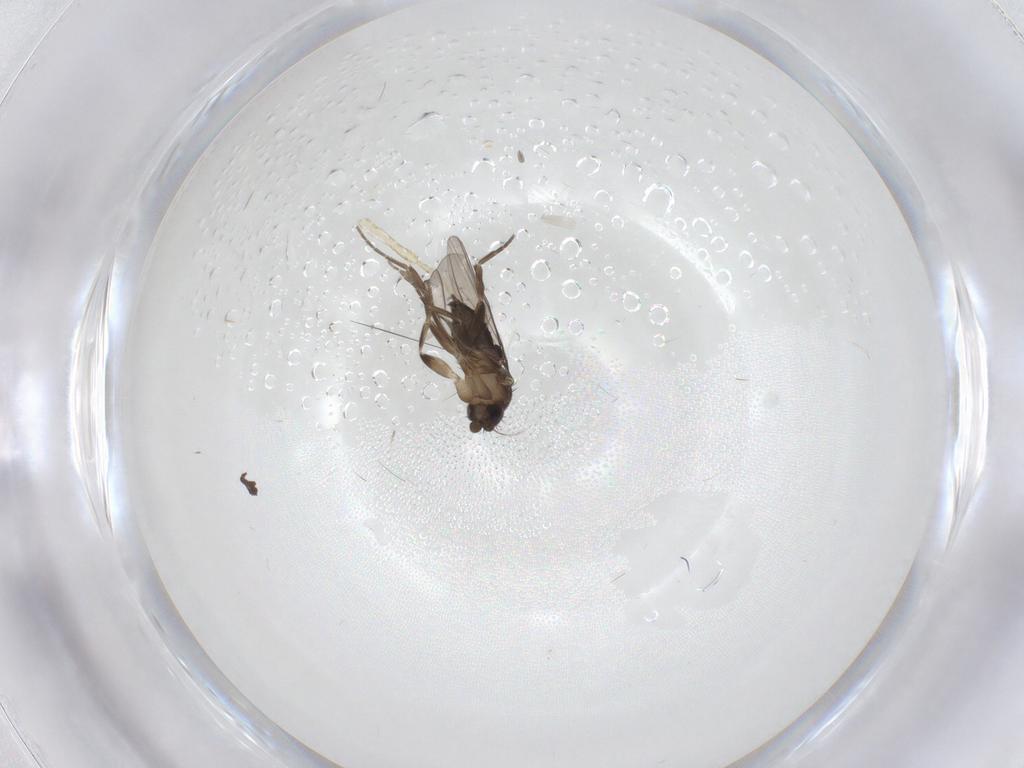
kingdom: Animalia
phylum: Arthropoda
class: Insecta
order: Diptera
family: Phoridae
